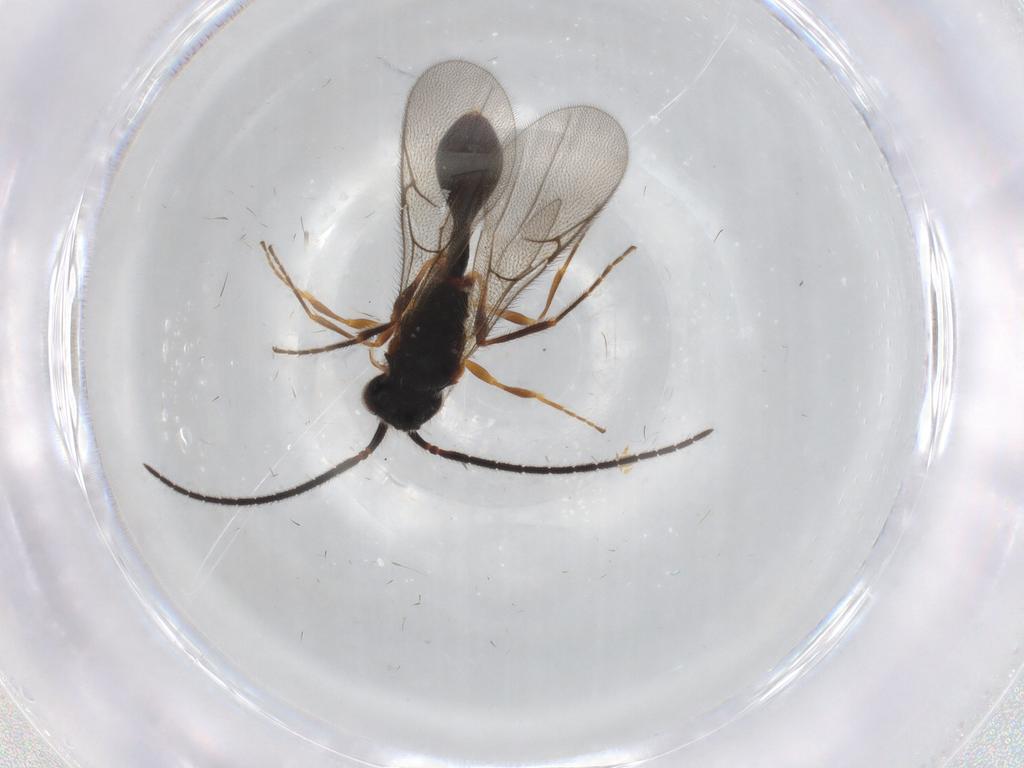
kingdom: Animalia
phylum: Arthropoda
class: Insecta
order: Hymenoptera
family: Diapriidae
